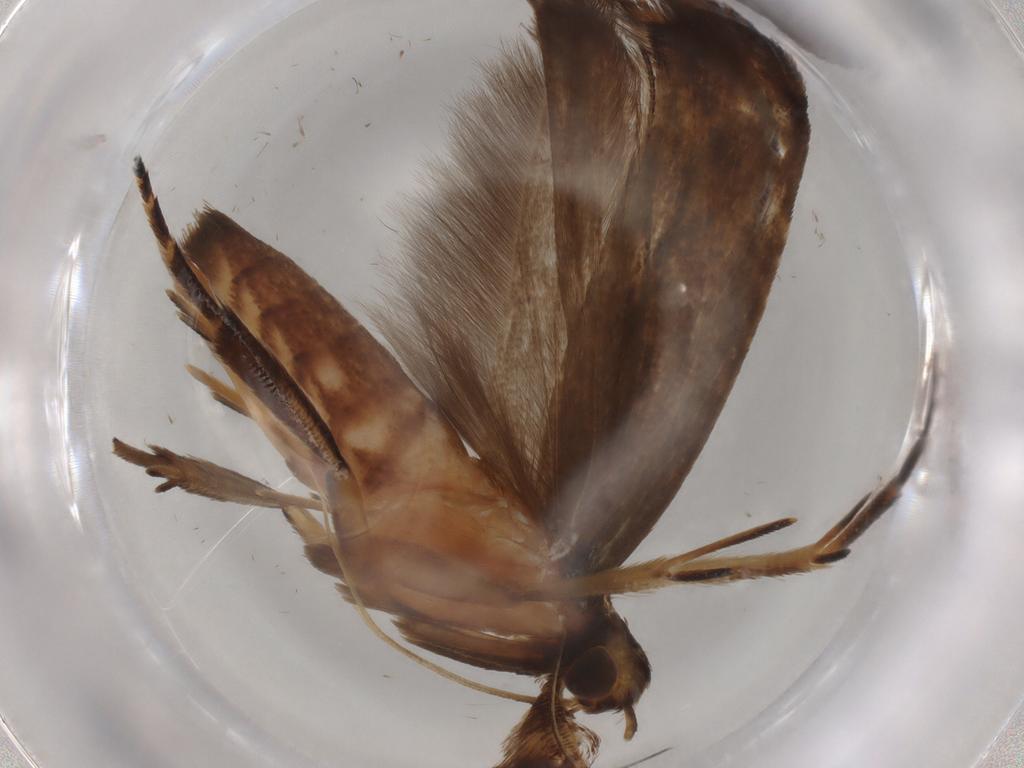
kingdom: Animalia
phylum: Arthropoda
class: Insecta
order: Lepidoptera
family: Gelechiidae
